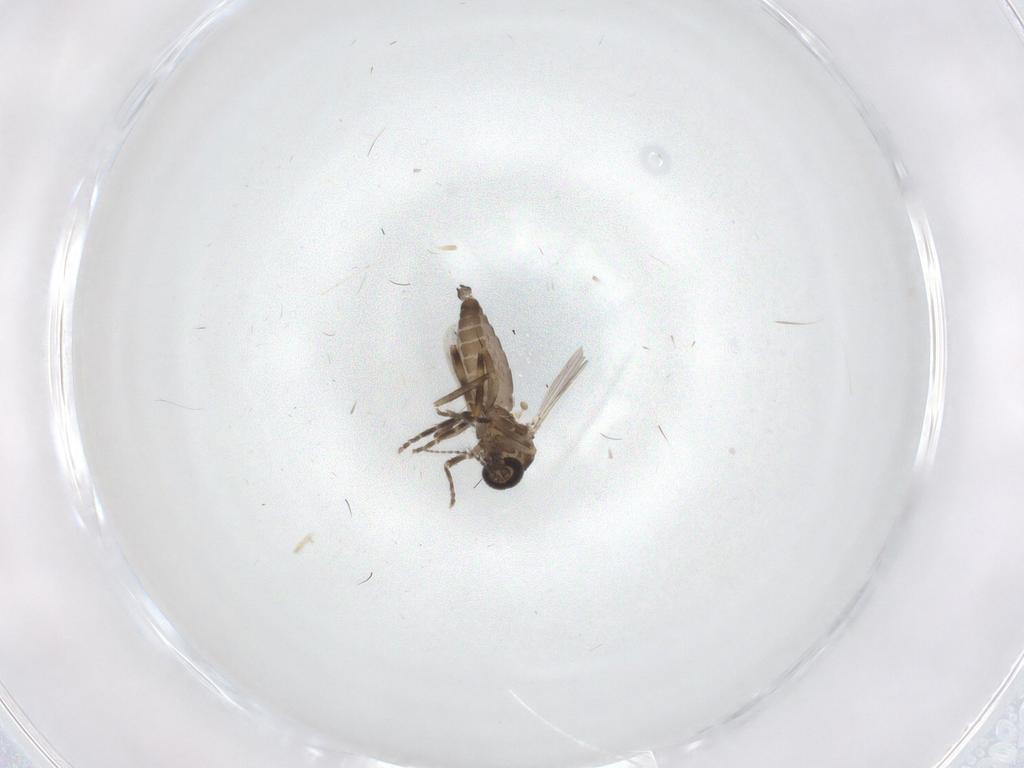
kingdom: Animalia
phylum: Arthropoda
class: Insecta
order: Diptera
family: Ceratopogonidae
